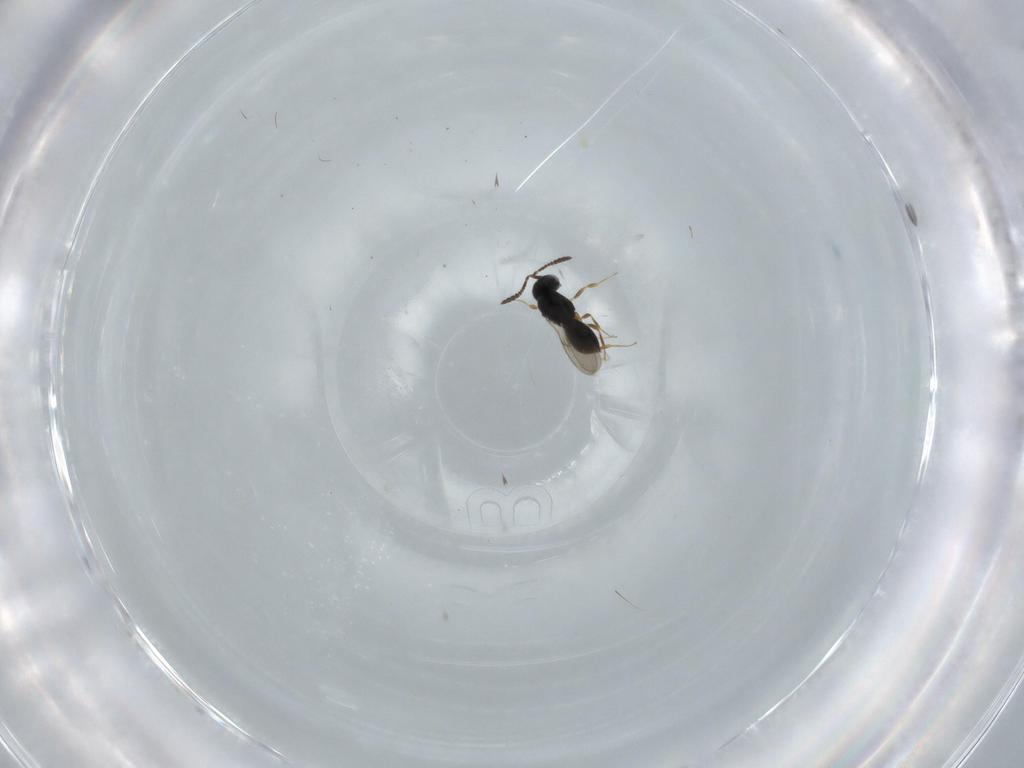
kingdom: Animalia
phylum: Arthropoda
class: Insecta
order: Hymenoptera
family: Scelionidae
